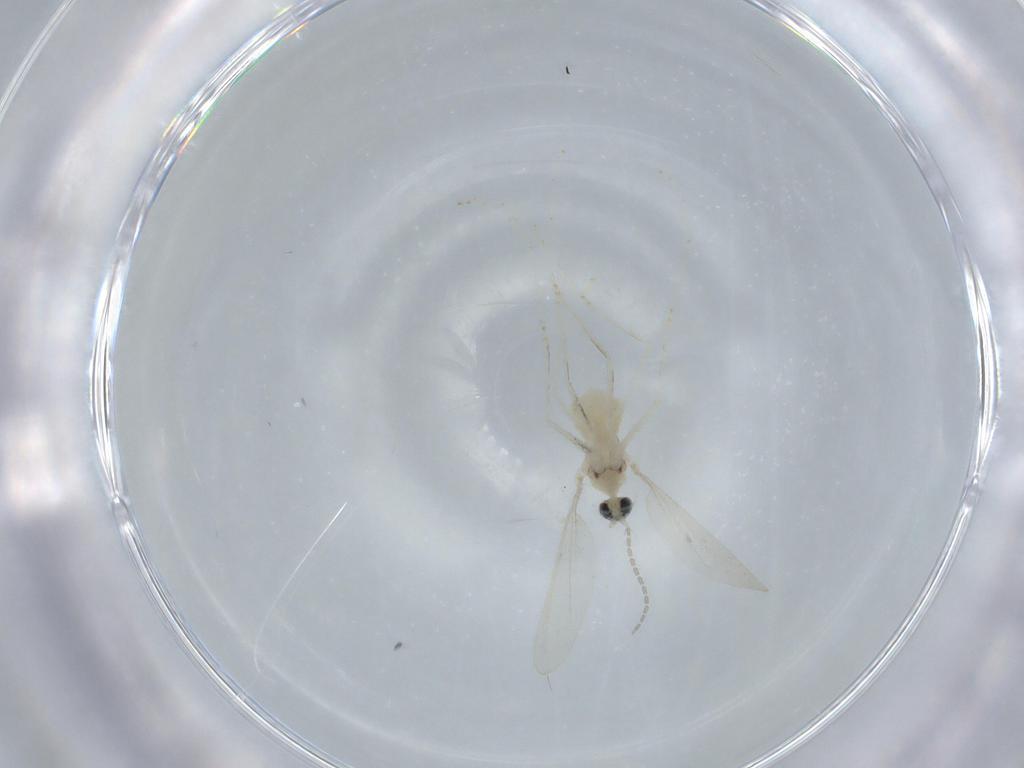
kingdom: Animalia
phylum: Arthropoda
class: Insecta
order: Diptera
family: Cecidomyiidae
